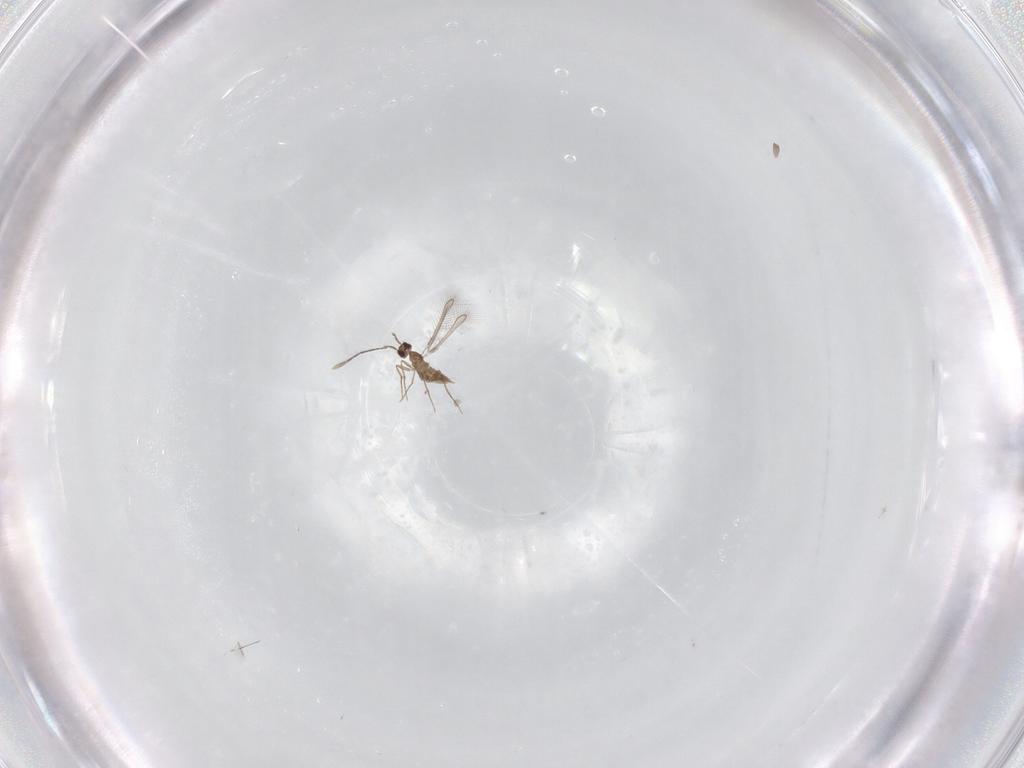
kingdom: Animalia
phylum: Arthropoda
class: Insecta
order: Hymenoptera
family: Mymaridae
